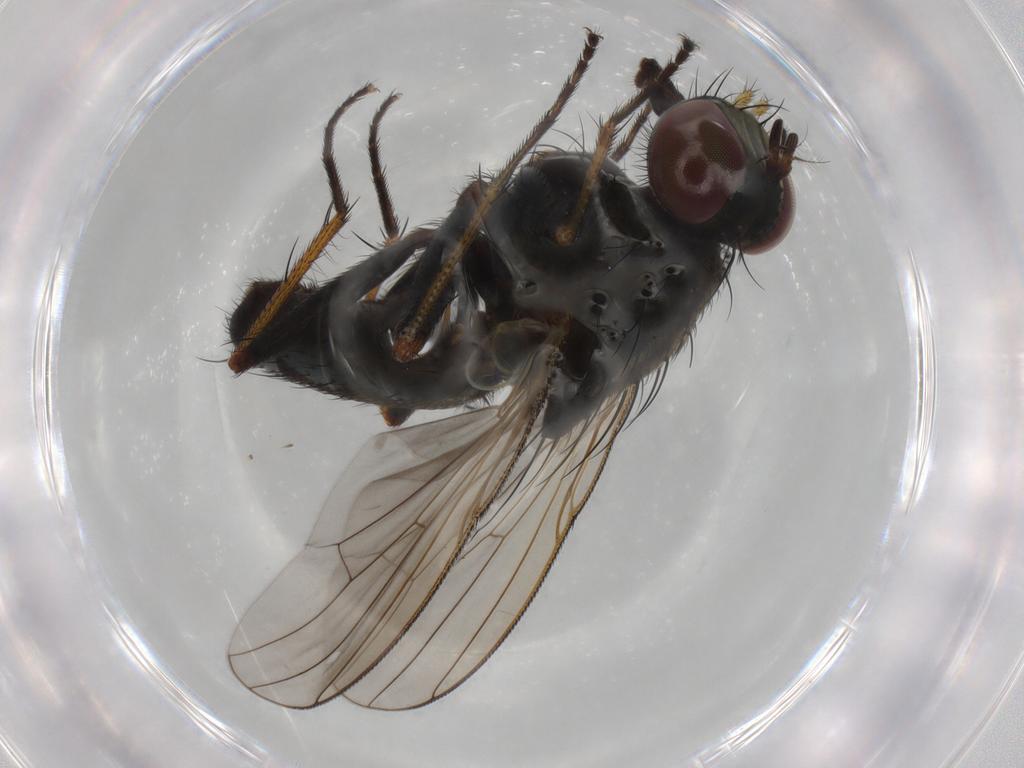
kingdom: Animalia
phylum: Arthropoda
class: Insecta
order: Diptera
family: Muscidae
